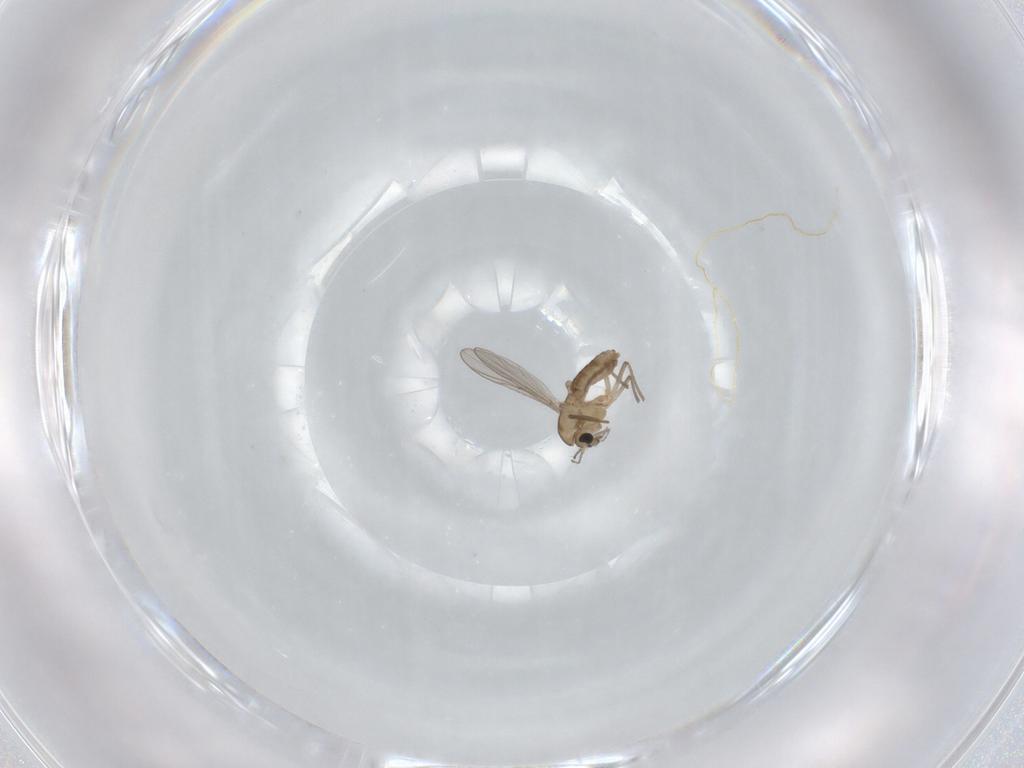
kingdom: Animalia
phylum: Arthropoda
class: Insecta
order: Diptera
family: Chironomidae
